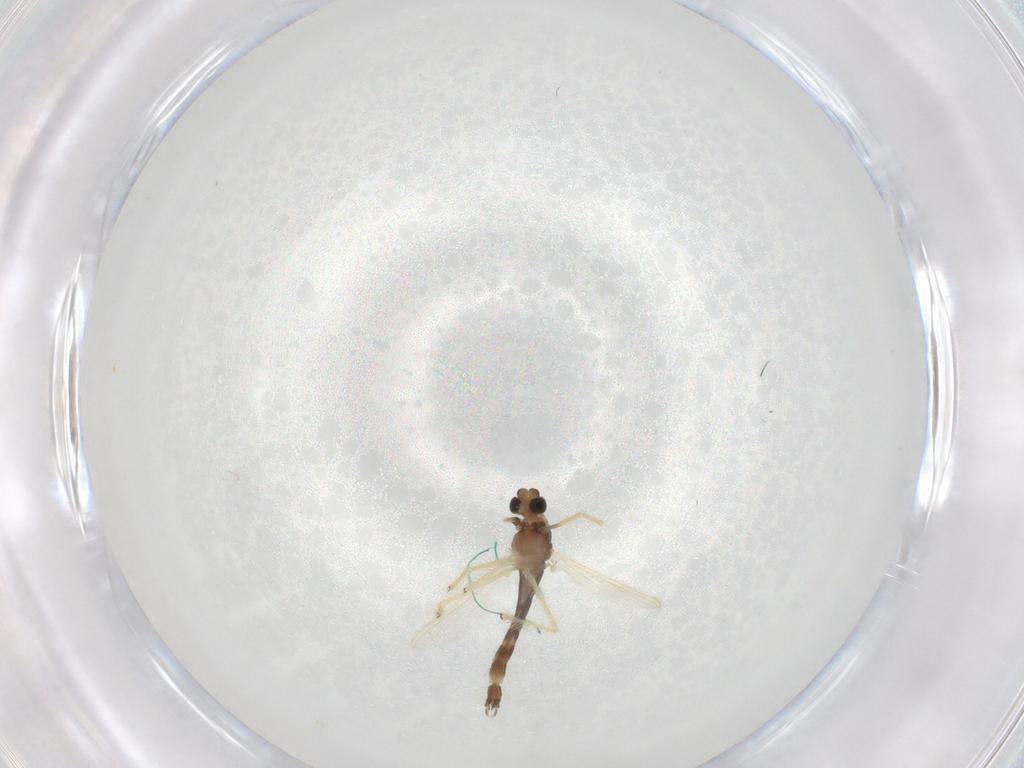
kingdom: Animalia
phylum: Arthropoda
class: Insecta
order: Diptera
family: Chironomidae
